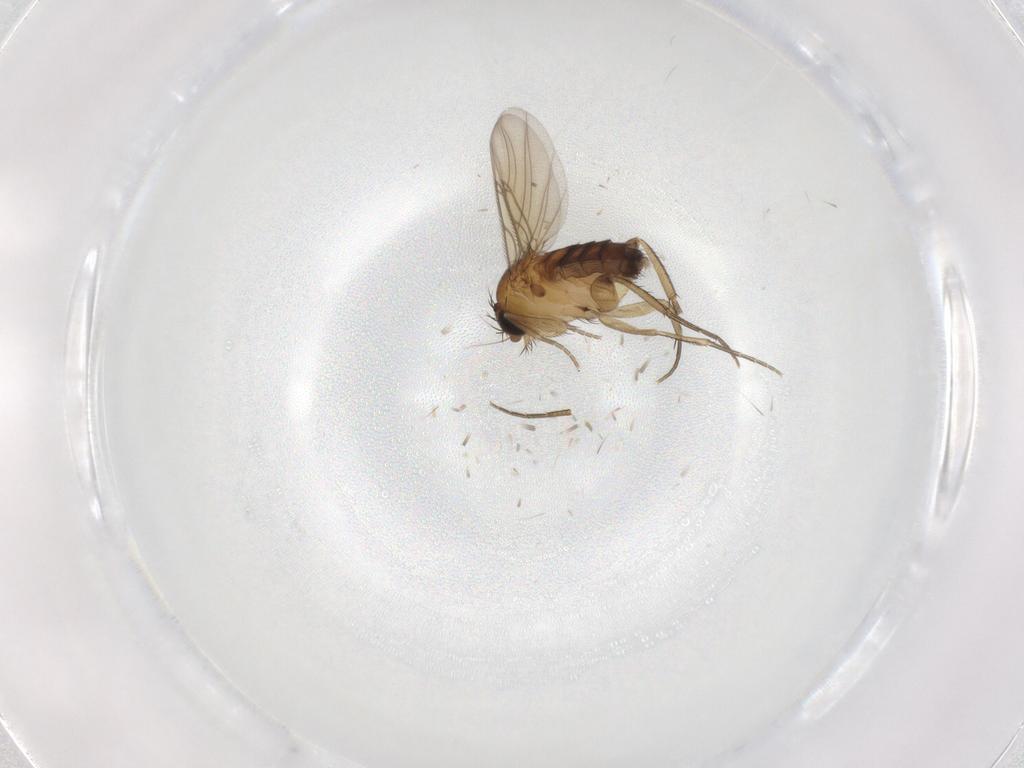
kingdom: Animalia
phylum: Arthropoda
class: Insecta
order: Diptera
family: Phoridae
